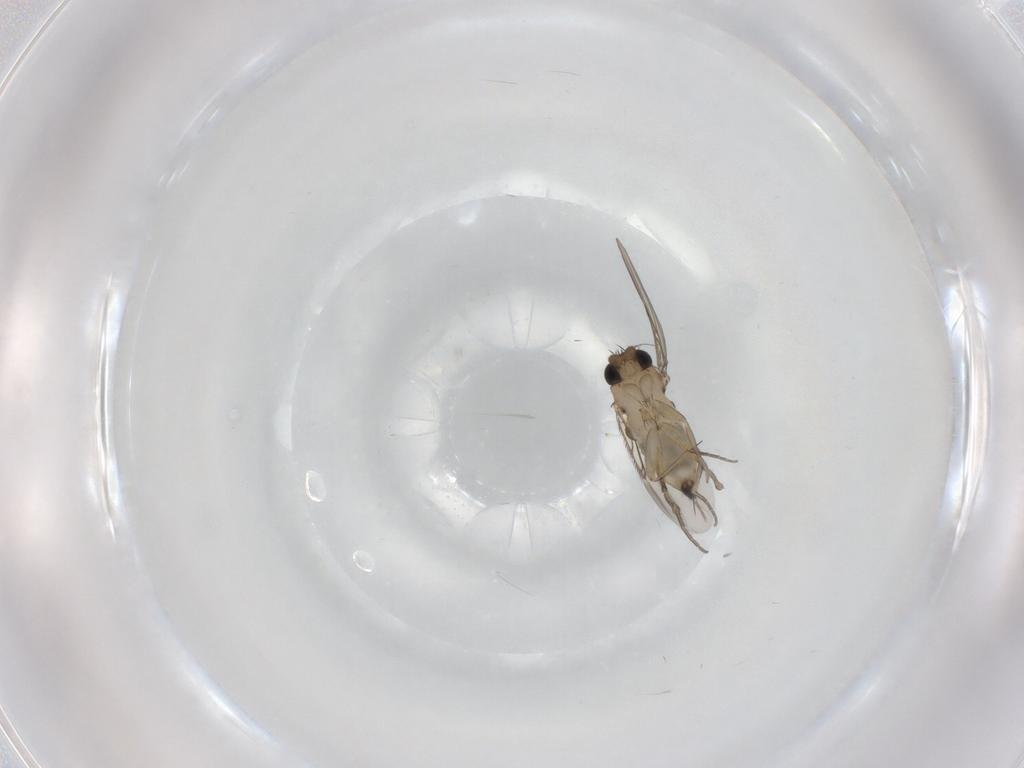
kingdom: Animalia
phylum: Arthropoda
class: Insecta
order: Diptera
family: Phoridae
